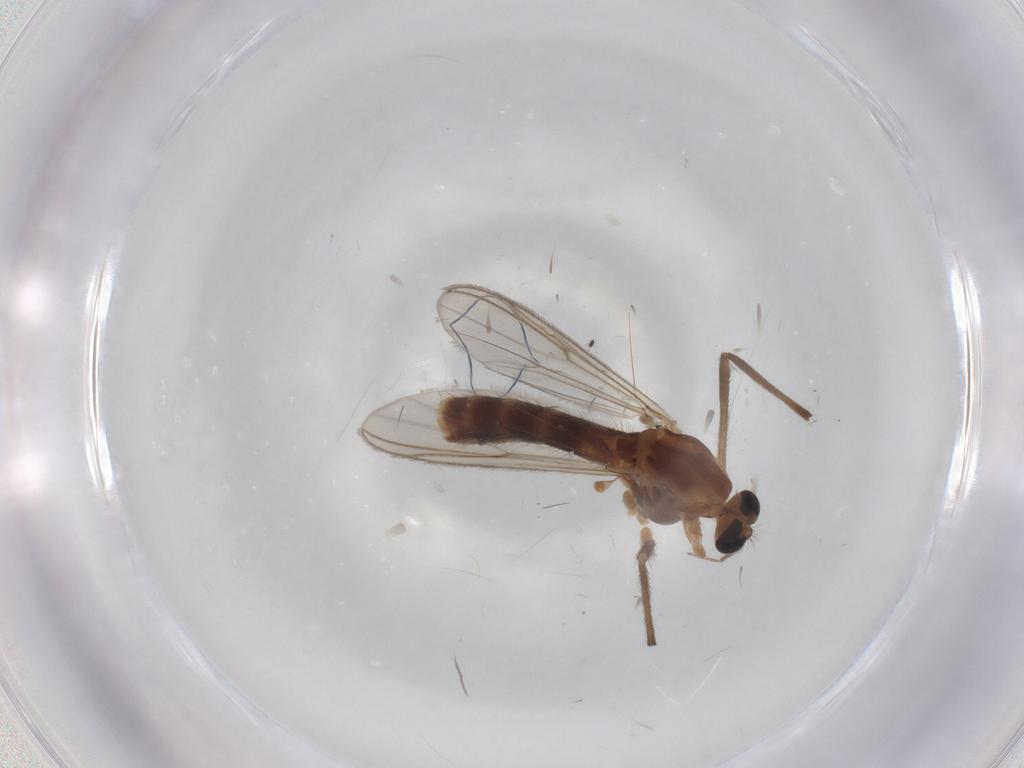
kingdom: Animalia
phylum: Arthropoda
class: Insecta
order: Diptera
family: Chironomidae
